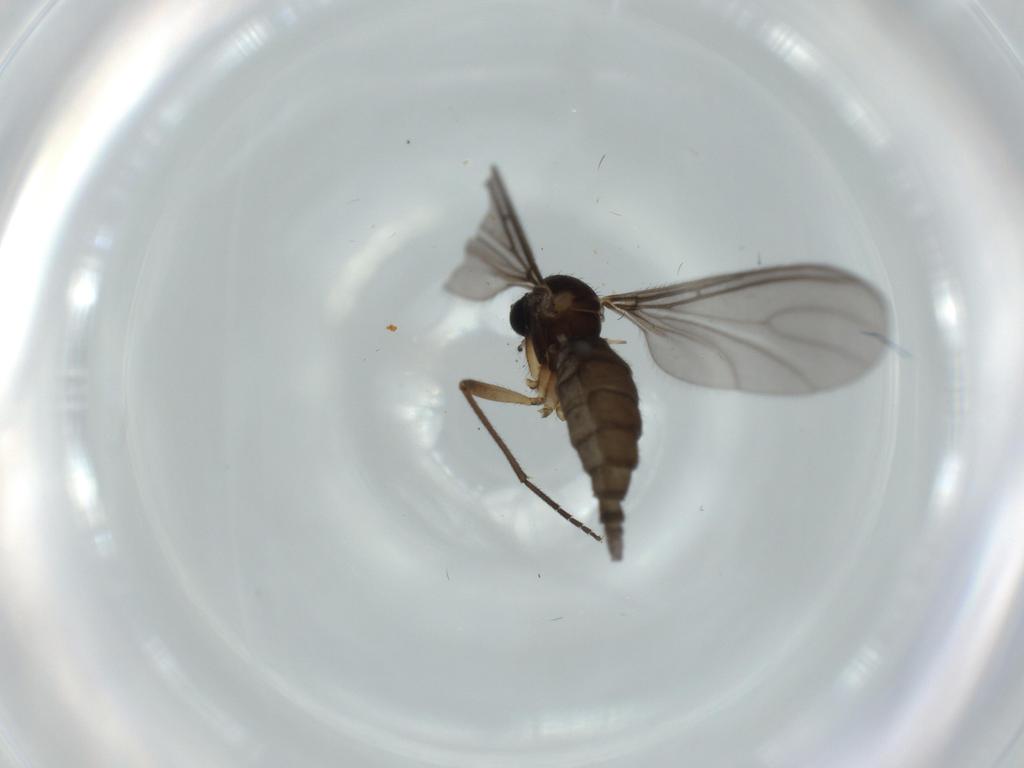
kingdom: Animalia
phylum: Arthropoda
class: Insecta
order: Diptera
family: Sciaridae
